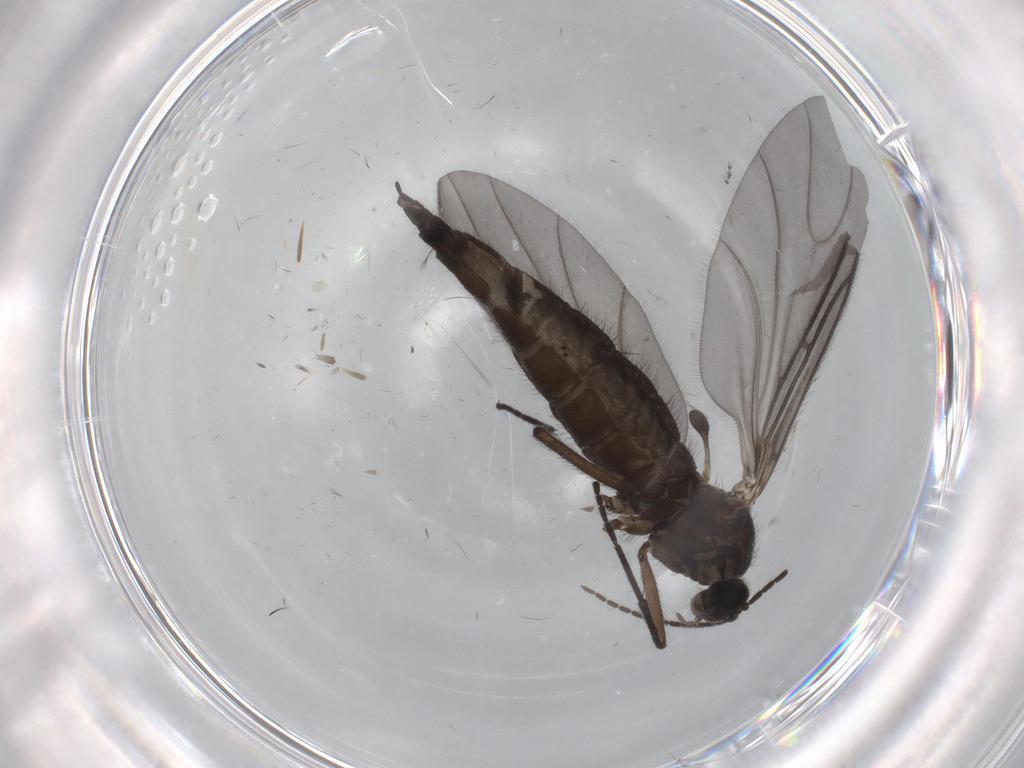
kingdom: Animalia
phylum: Arthropoda
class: Insecta
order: Diptera
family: Sciaridae
